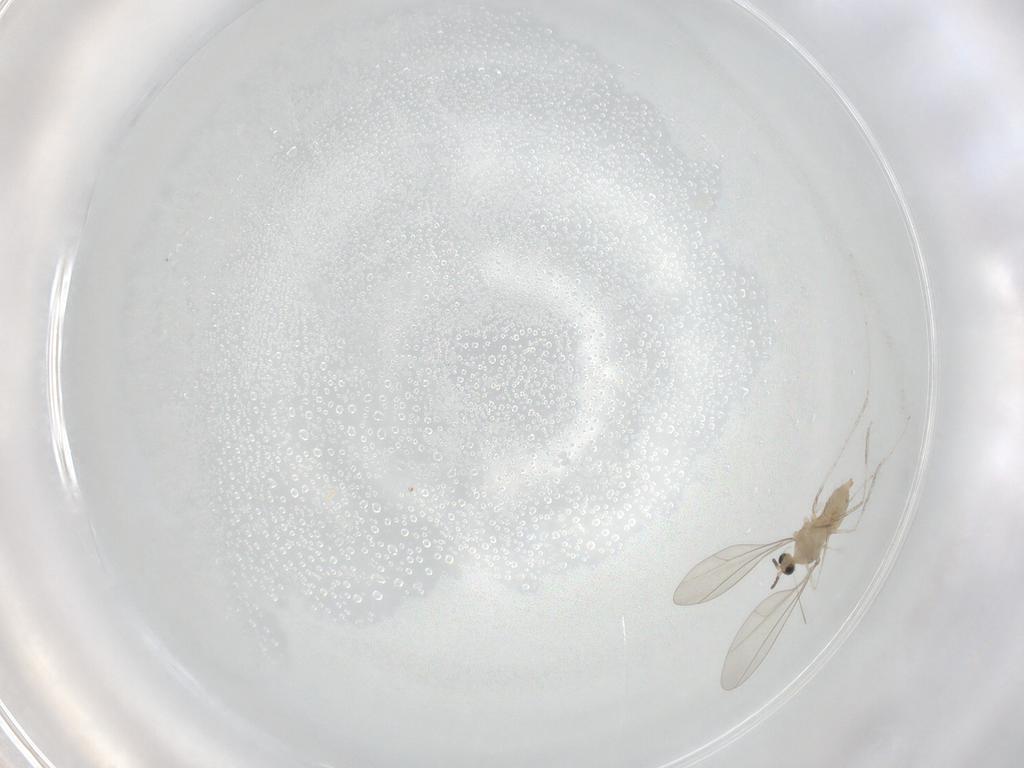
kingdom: Animalia
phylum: Arthropoda
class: Insecta
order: Diptera
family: Cecidomyiidae
